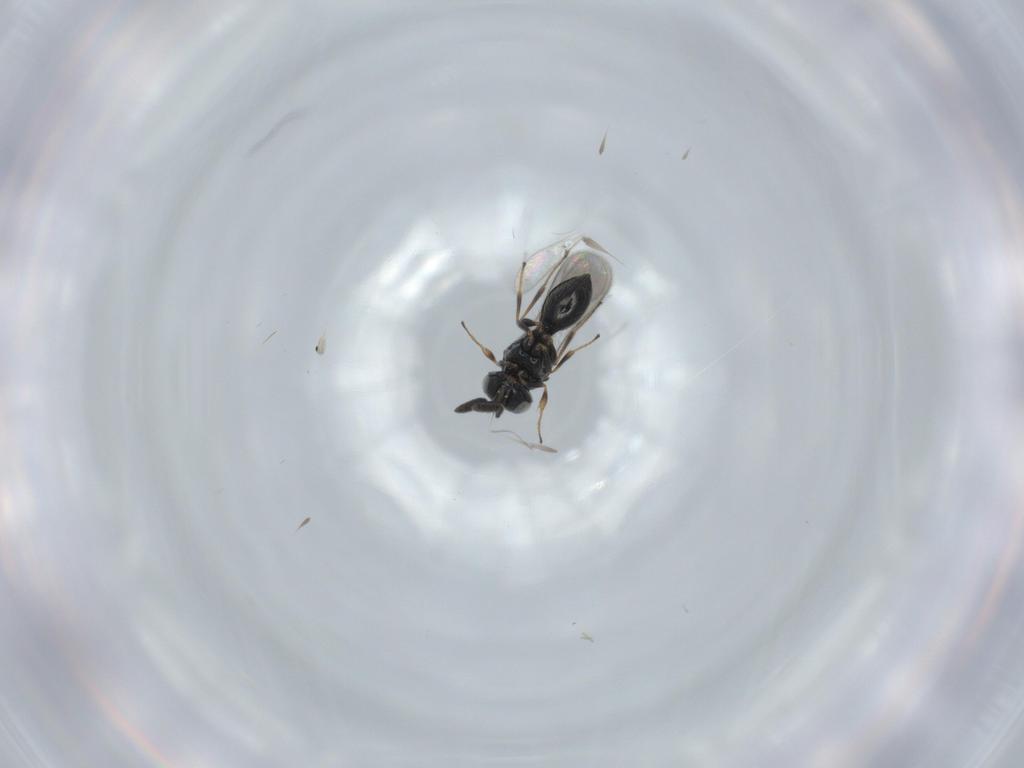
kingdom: Animalia
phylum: Arthropoda
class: Insecta
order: Hymenoptera
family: Scelionidae
